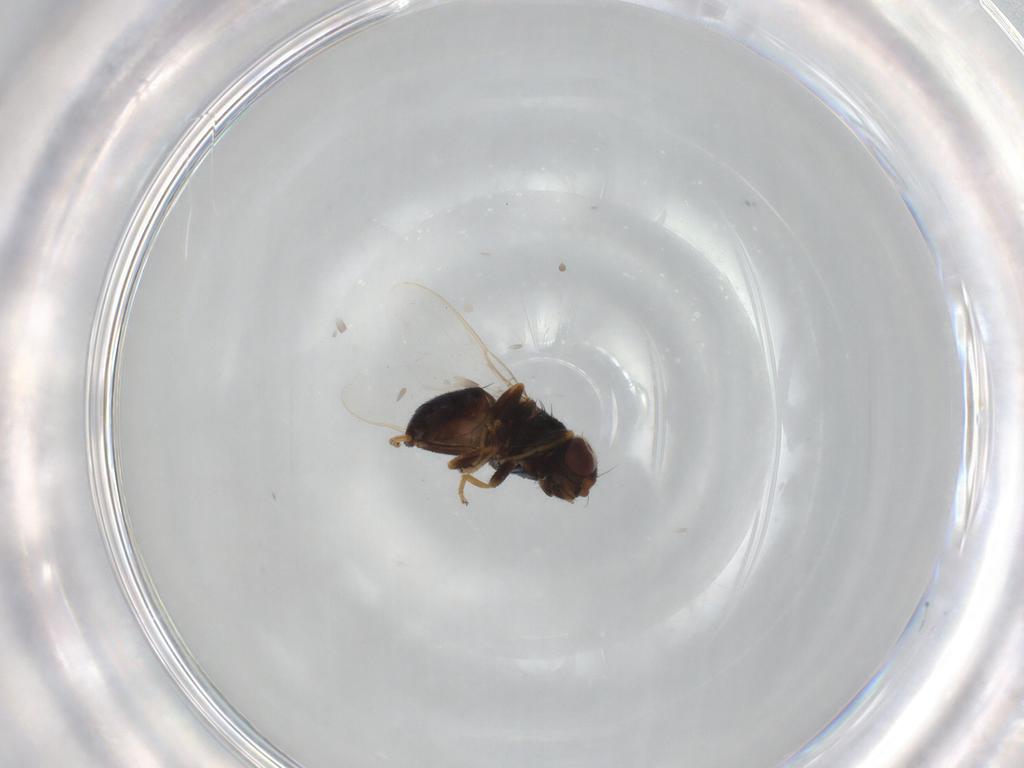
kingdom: Animalia
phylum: Arthropoda
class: Insecta
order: Diptera
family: Chloropidae
